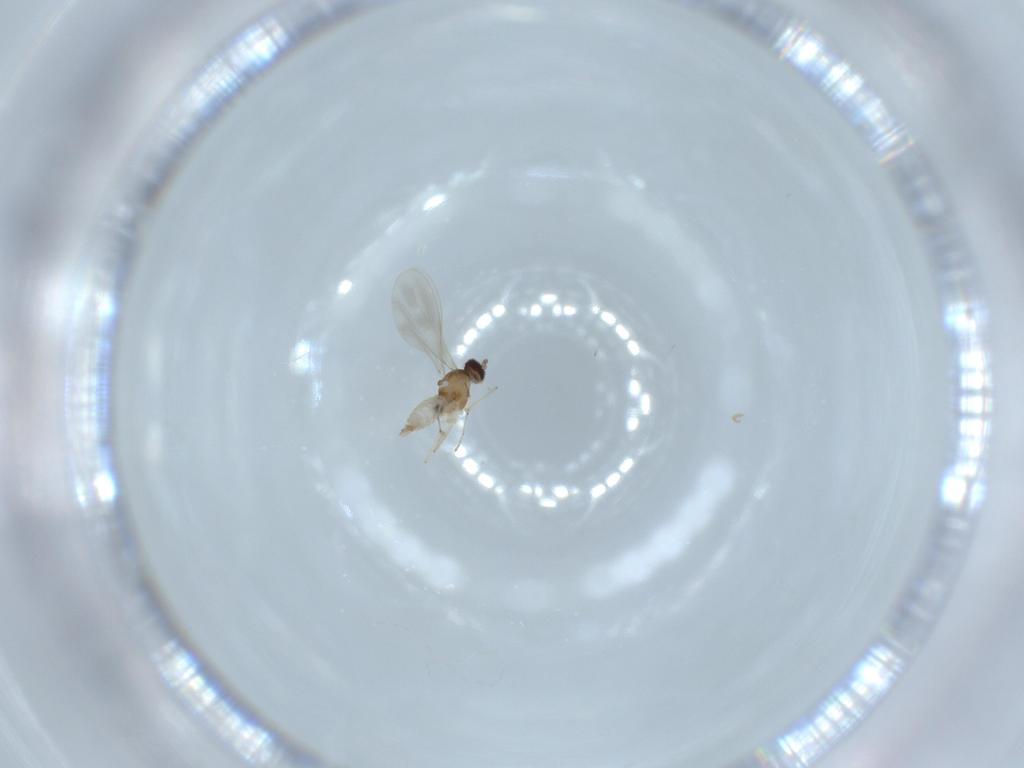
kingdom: Animalia
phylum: Arthropoda
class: Insecta
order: Diptera
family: Cecidomyiidae
